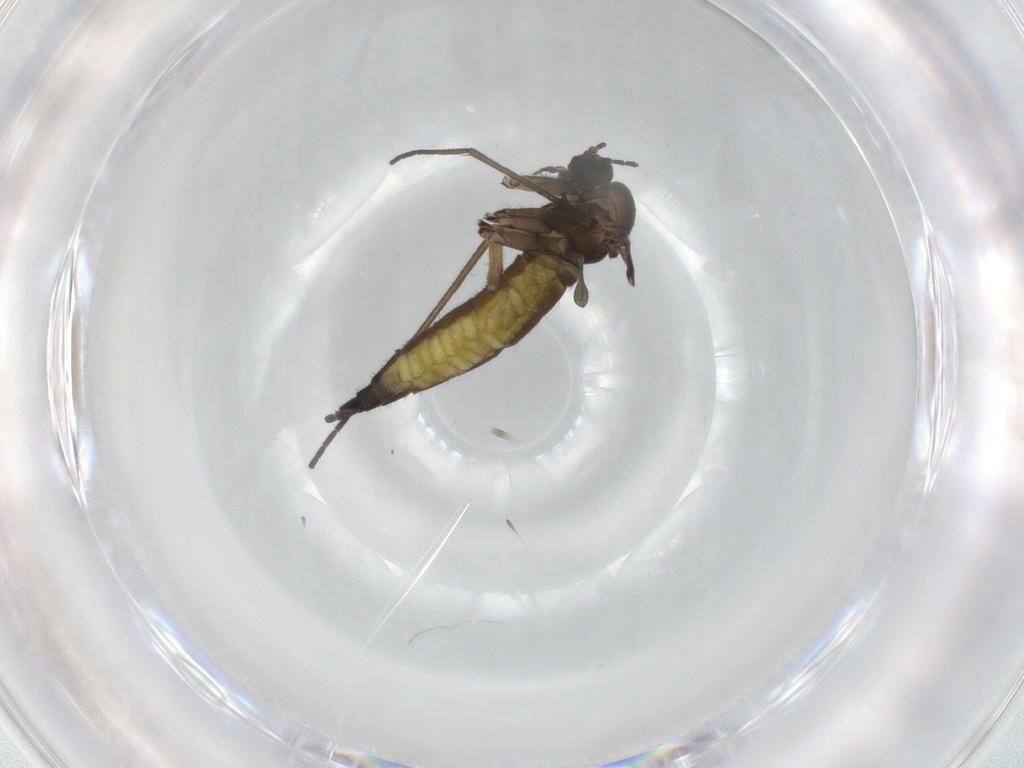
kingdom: Animalia
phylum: Arthropoda
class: Insecta
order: Diptera
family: Sciaridae
